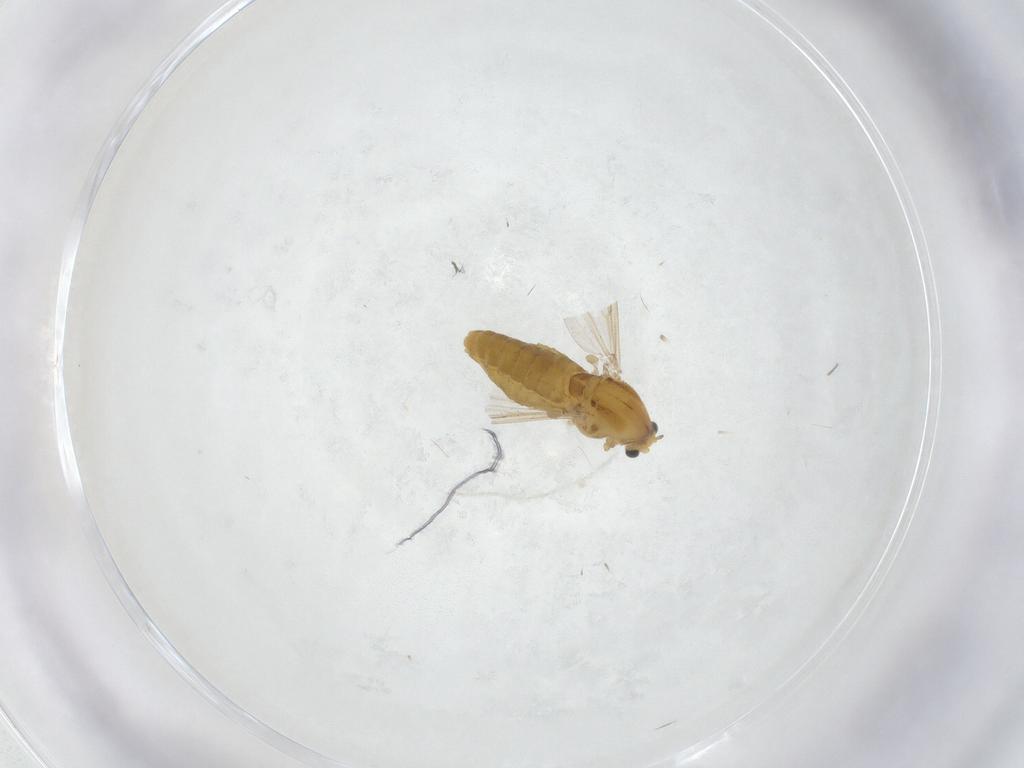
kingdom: Animalia
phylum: Arthropoda
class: Insecta
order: Diptera
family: Chironomidae
